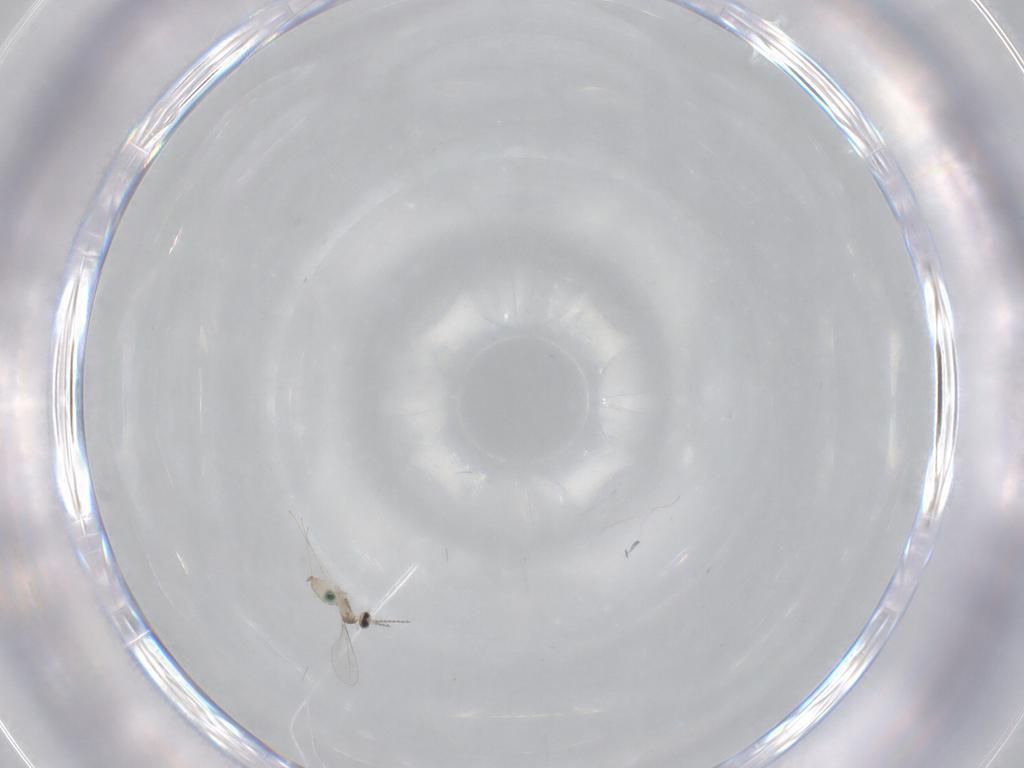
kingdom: Animalia
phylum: Arthropoda
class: Insecta
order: Diptera
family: Cecidomyiidae
